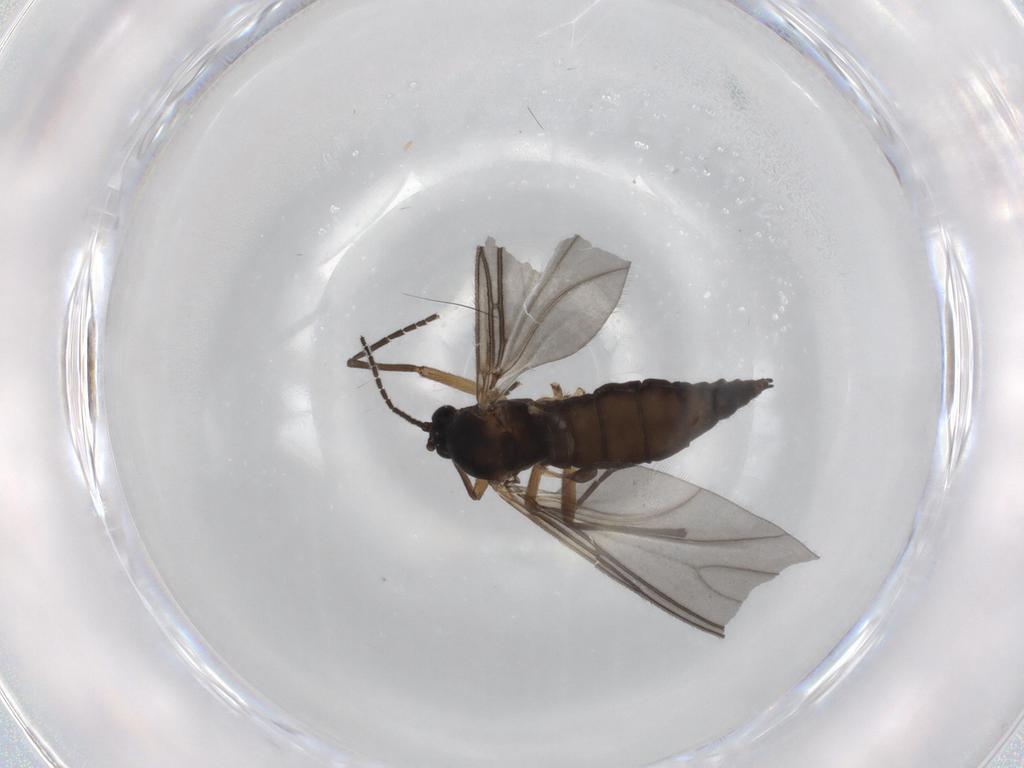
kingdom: Animalia
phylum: Arthropoda
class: Insecta
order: Diptera
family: Sciaridae
